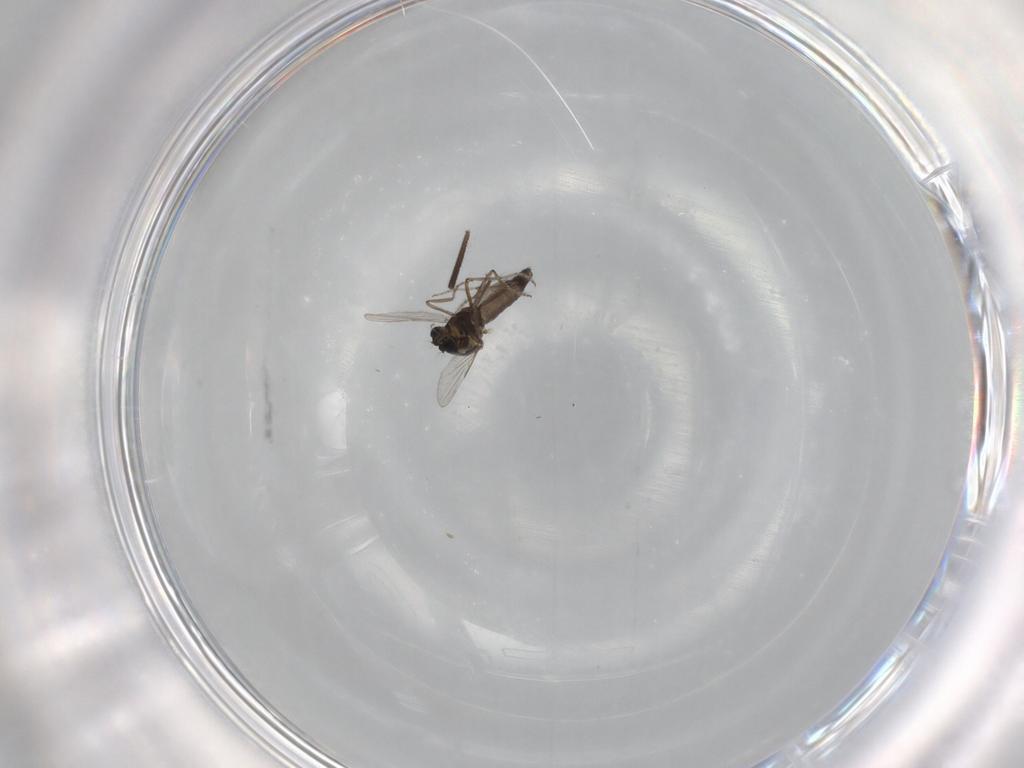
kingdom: Animalia
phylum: Arthropoda
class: Insecta
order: Diptera
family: Ceratopogonidae
